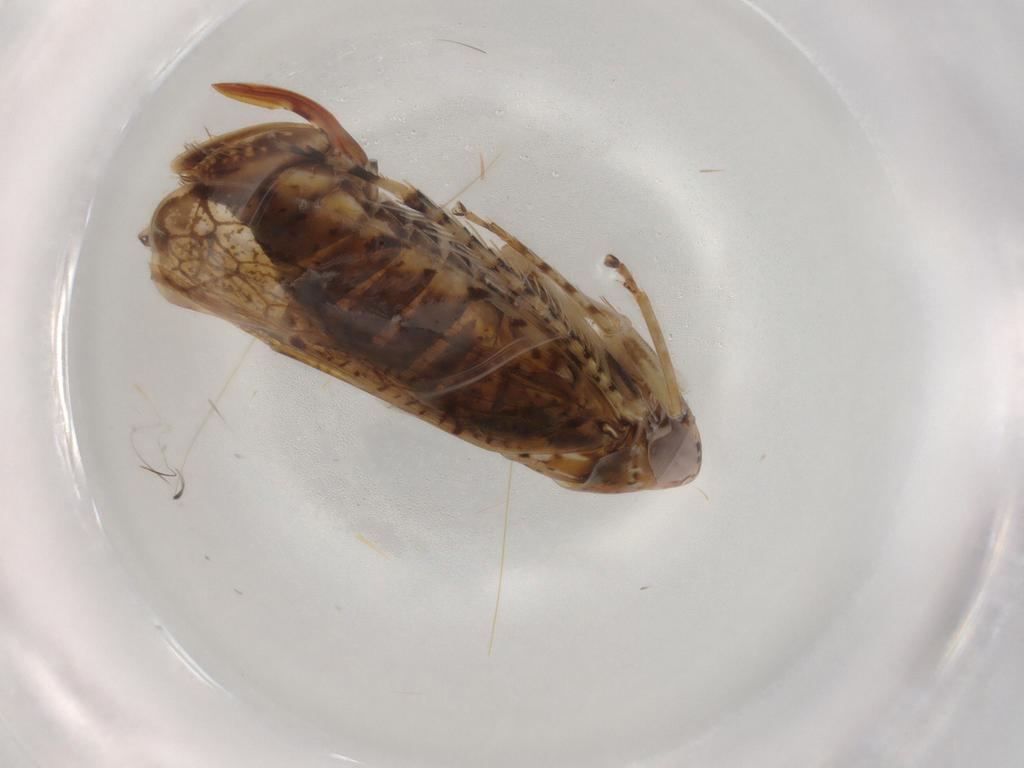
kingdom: Animalia
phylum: Arthropoda
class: Insecta
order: Hemiptera
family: Cicadellidae
